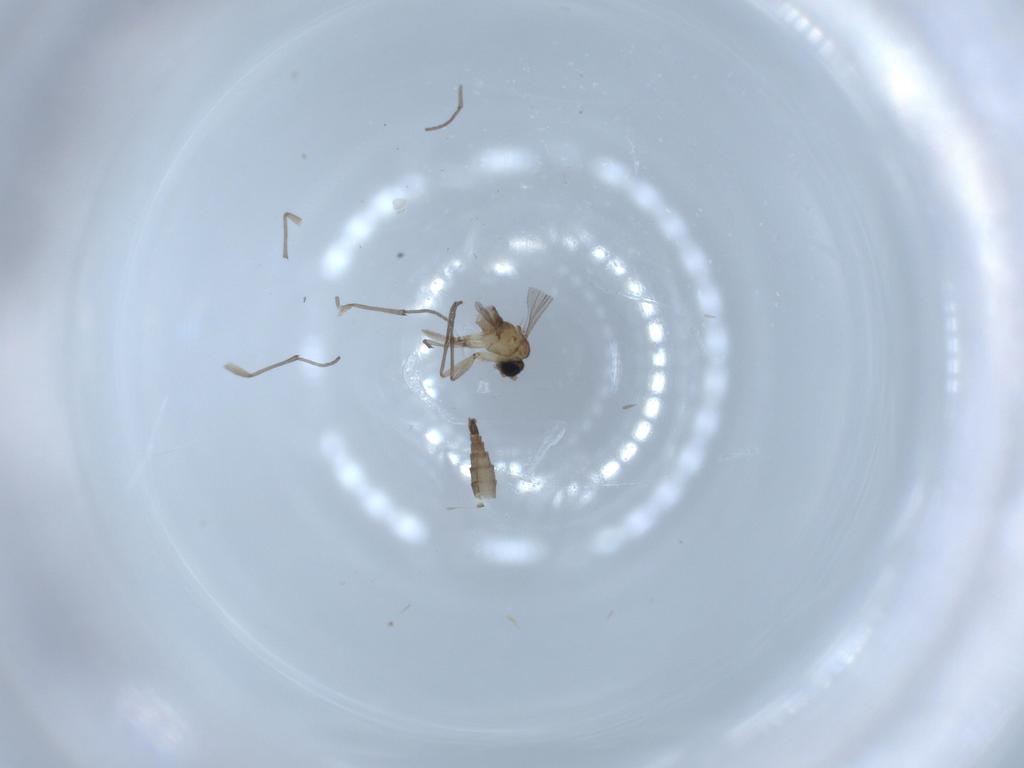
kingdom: Animalia
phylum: Arthropoda
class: Insecta
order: Diptera
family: Sciaridae
